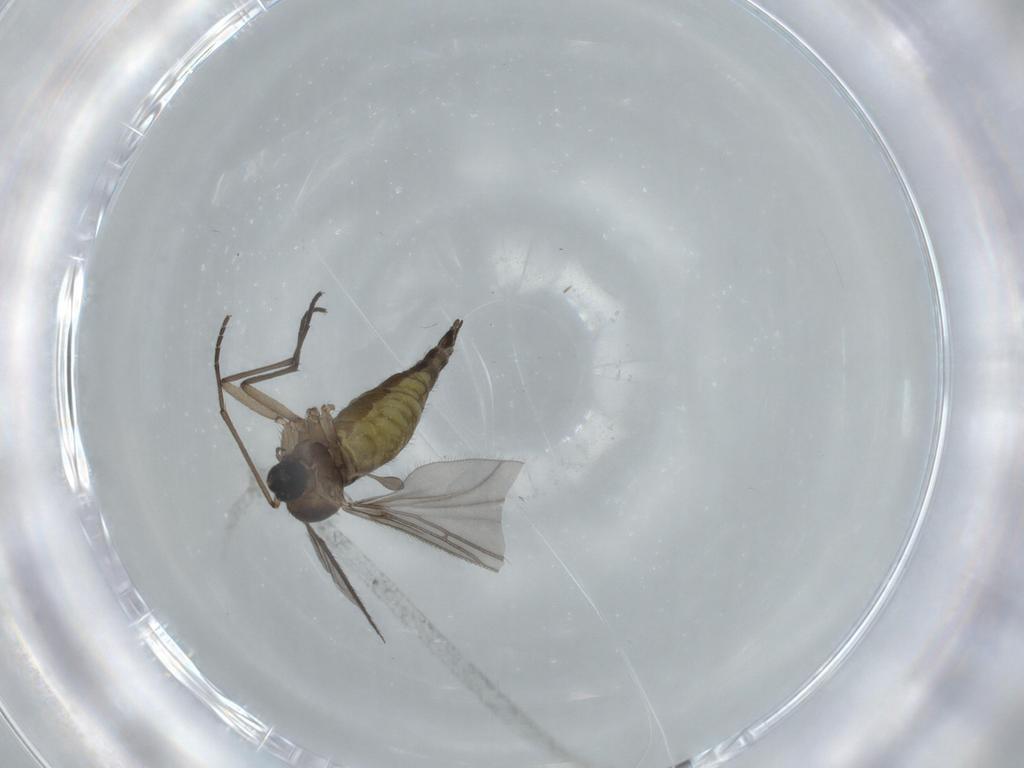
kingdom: Animalia
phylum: Arthropoda
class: Insecta
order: Diptera
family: Sciaridae
